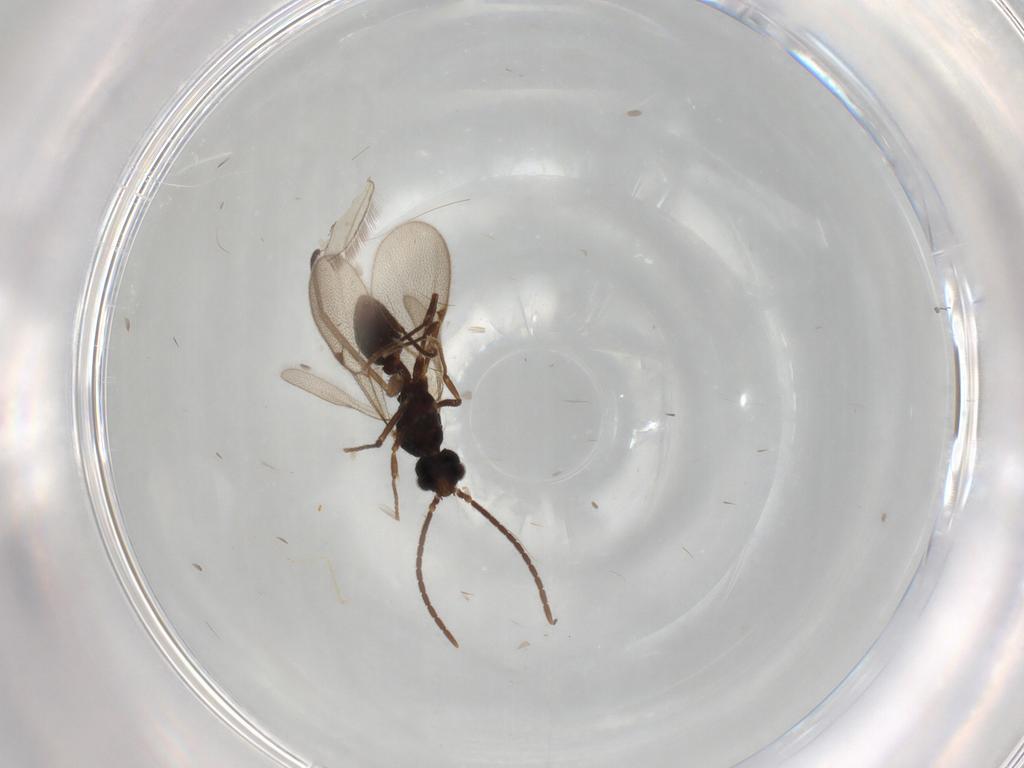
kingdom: Animalia
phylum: Arthropoda
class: Insecta
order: Hymenoptera
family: Formicidae
